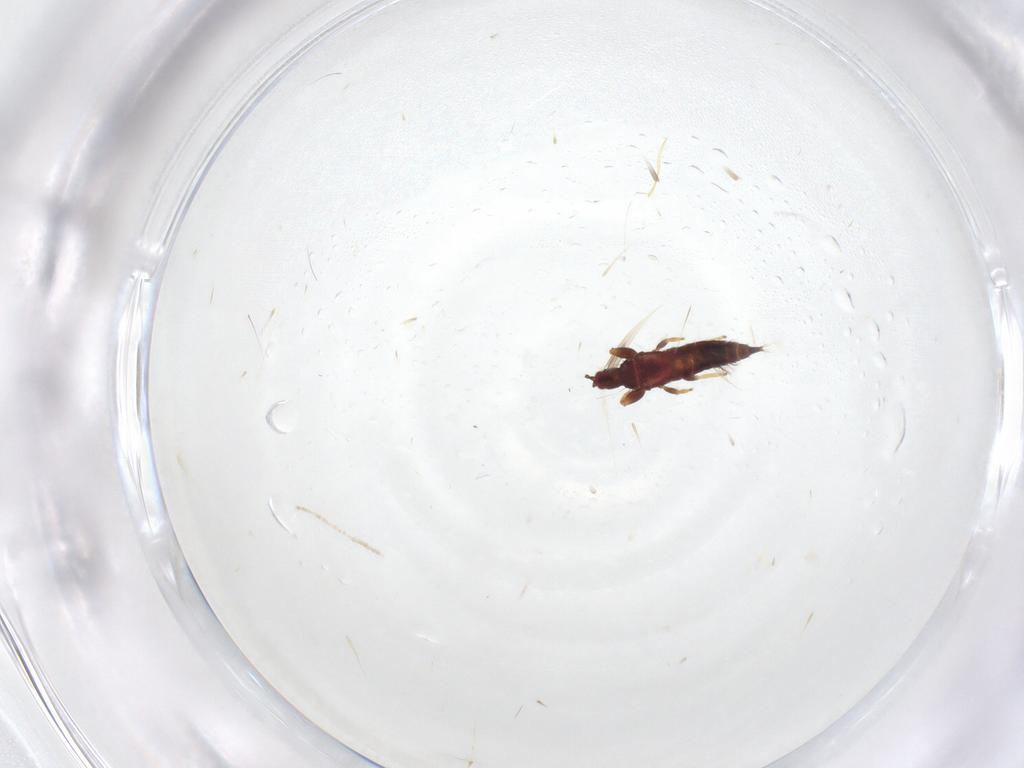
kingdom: Animalia
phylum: Arthropoda
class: Insecta
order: Thysanoptera
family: Phlaeothripidae
